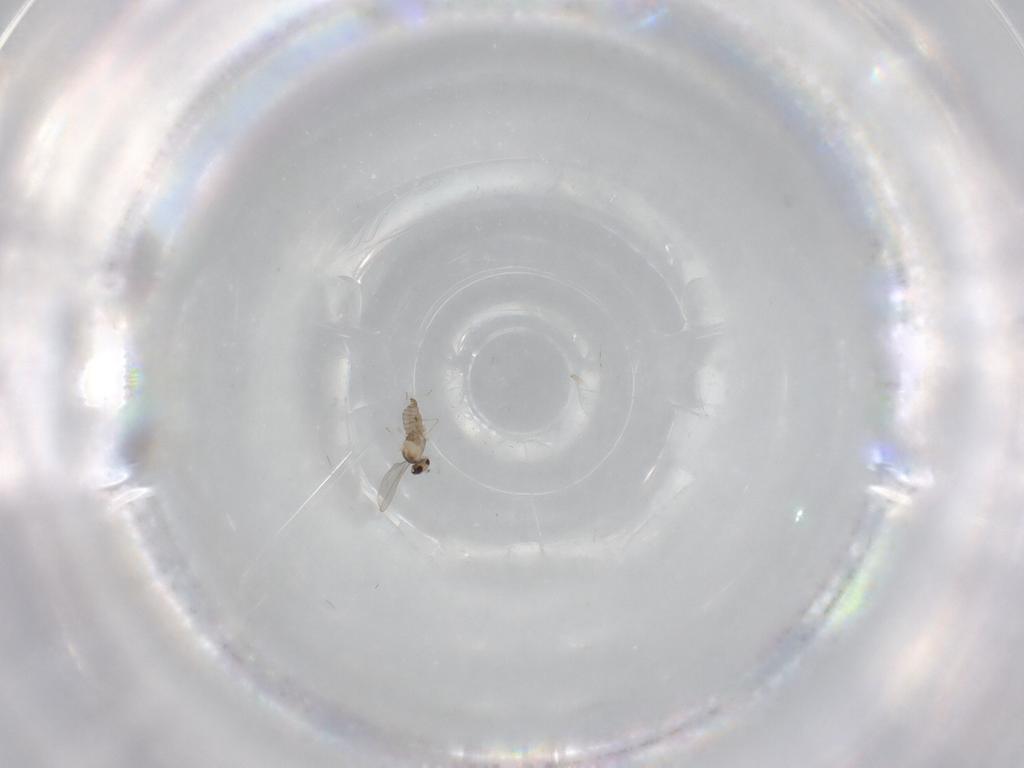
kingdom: Animalia
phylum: Arthropoda
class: Insecta
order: Diptera
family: Cecidomyiidae
